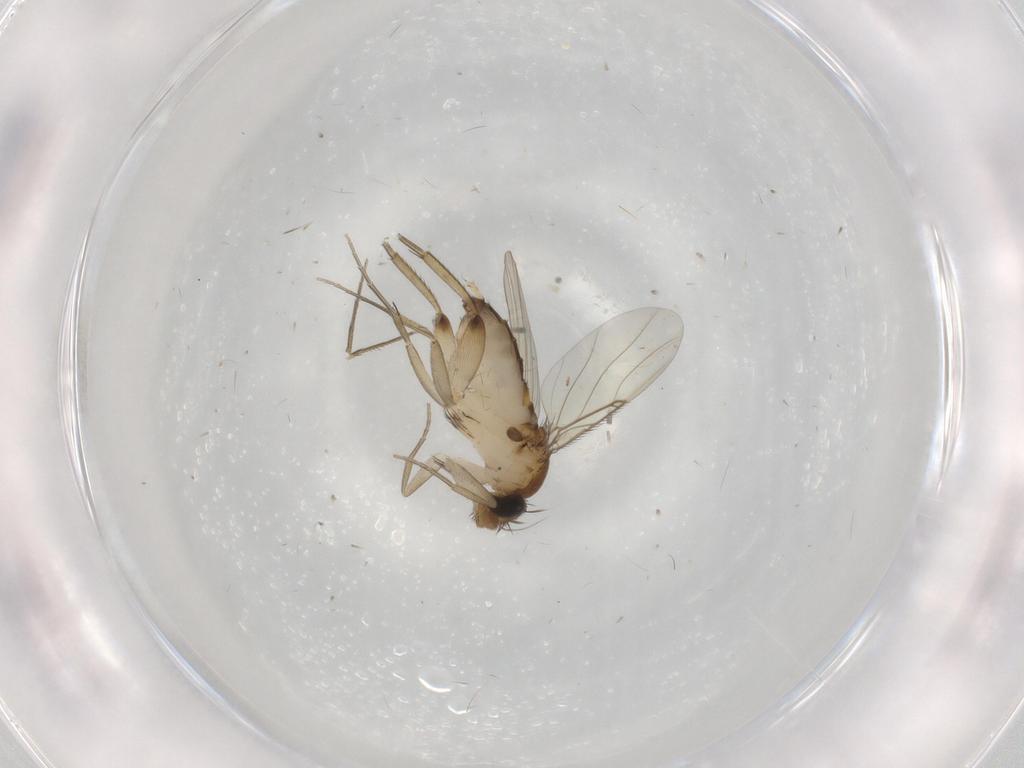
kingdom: Animalia
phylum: Arthropoda
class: Insecta
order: Diptera
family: Phoridae
